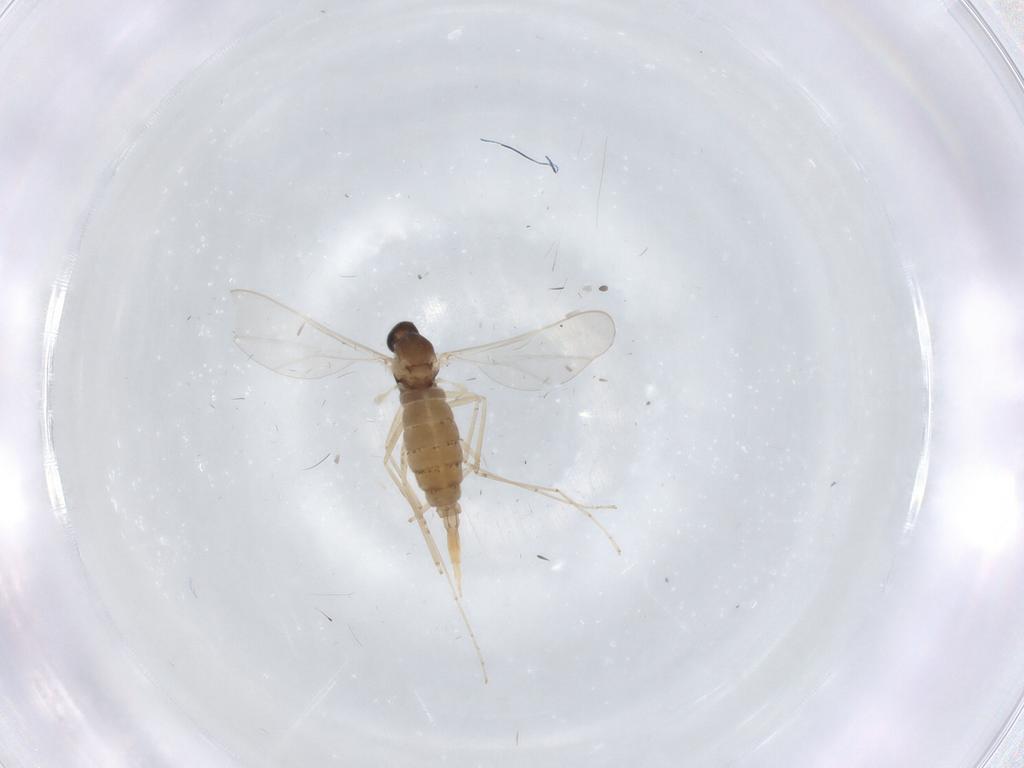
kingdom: Animalia
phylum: Arthropoda
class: Insecta
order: Diptera
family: Cecidomyiidae
